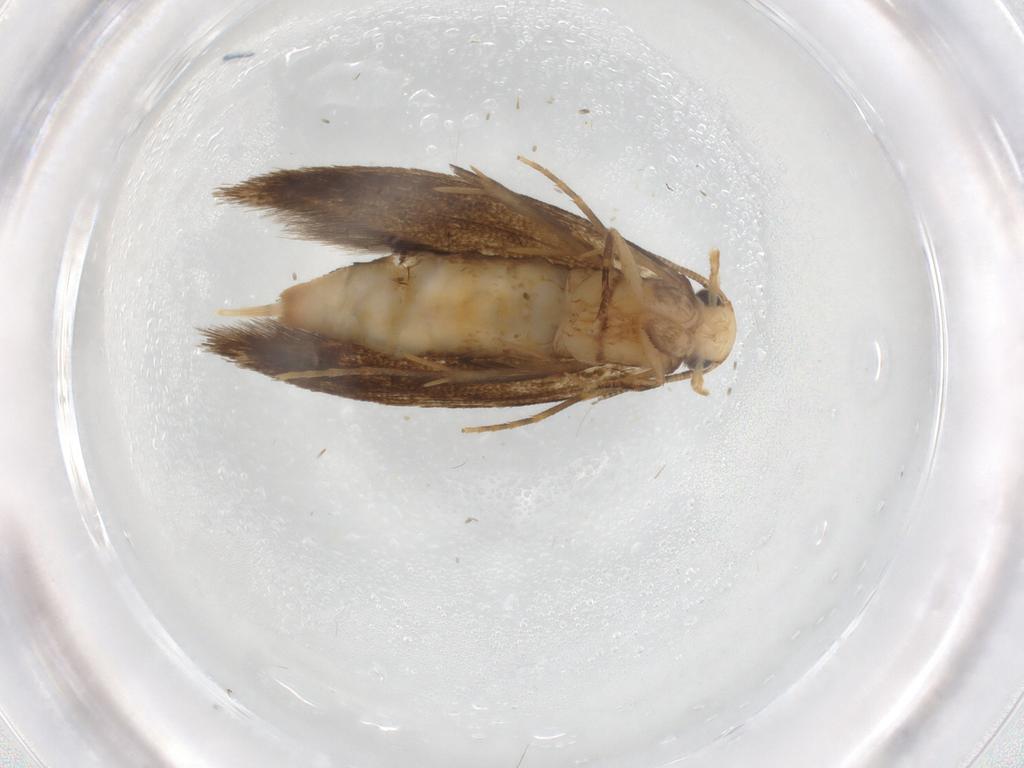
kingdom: Animalia
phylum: Arthropoda
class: Insecta
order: Lepidoptera
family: Tineidae
